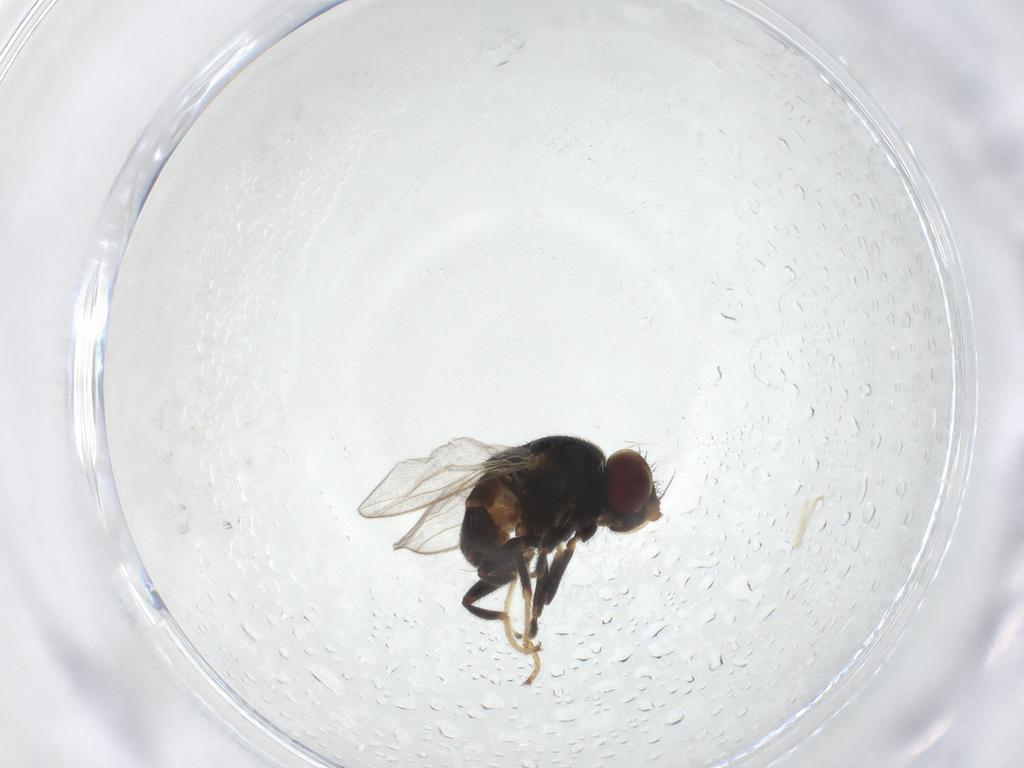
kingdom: Animalia
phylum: Arthropoda
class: Insecta
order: Diptera
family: Chloropidae
